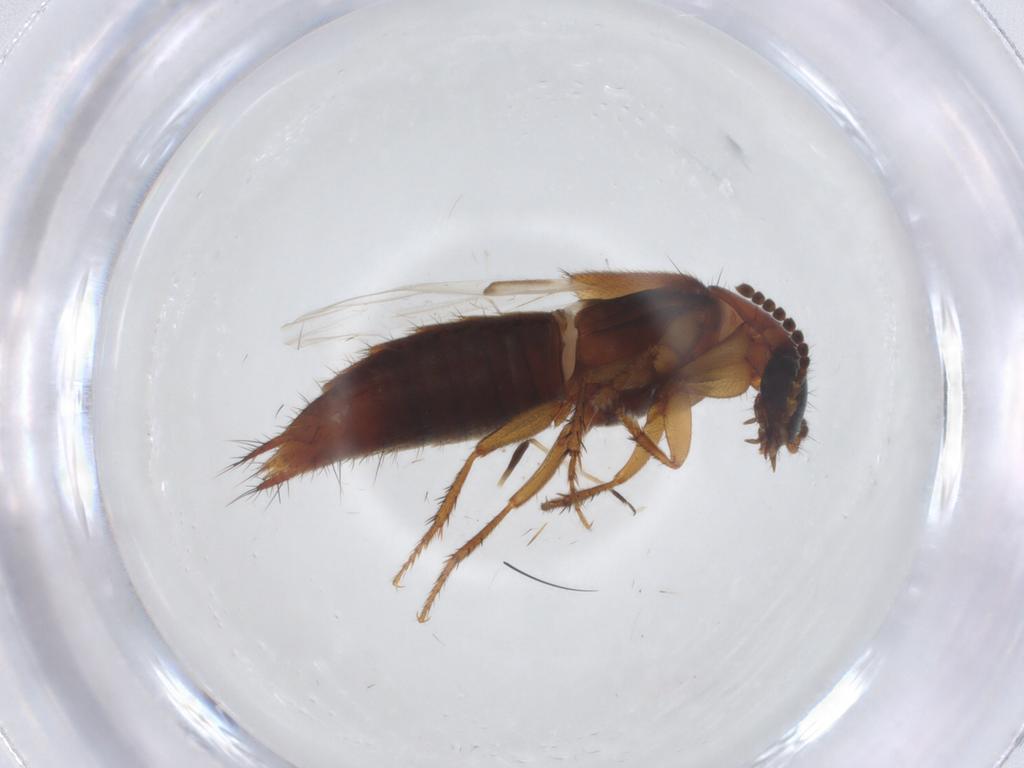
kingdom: Animalia
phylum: Arthropoda
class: Insecta
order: Coleoptera
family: Staphylinidae
